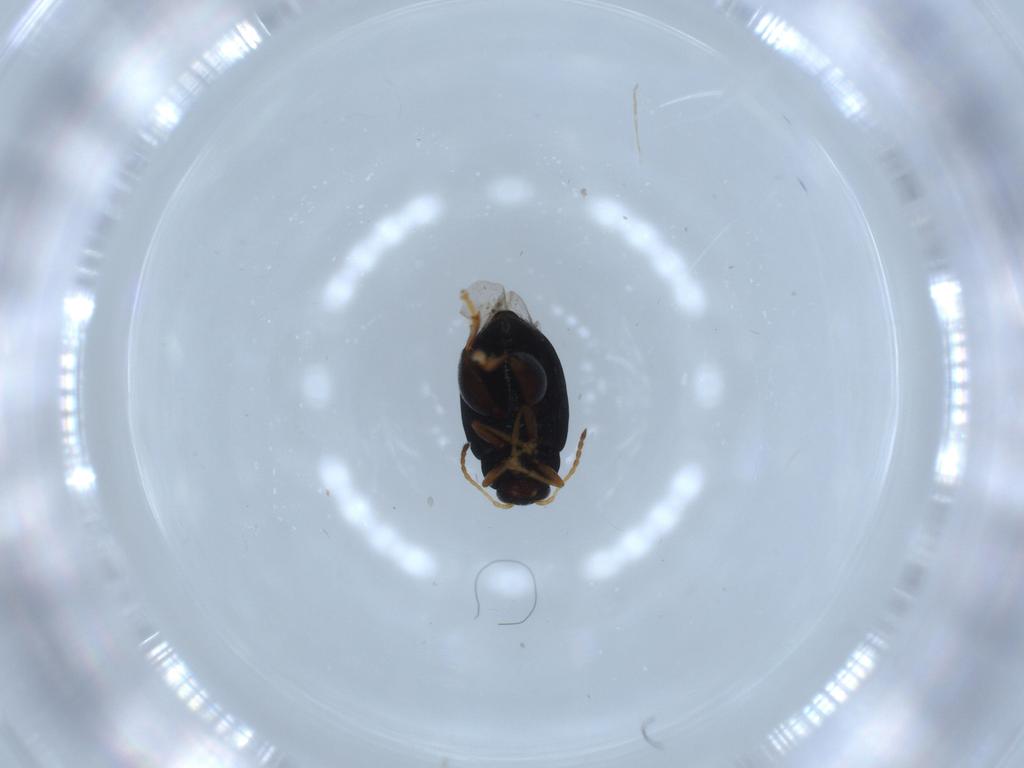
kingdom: Animalia
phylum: Arthropoda
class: Insecta
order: Coleoptera
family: Chrysomelidae
